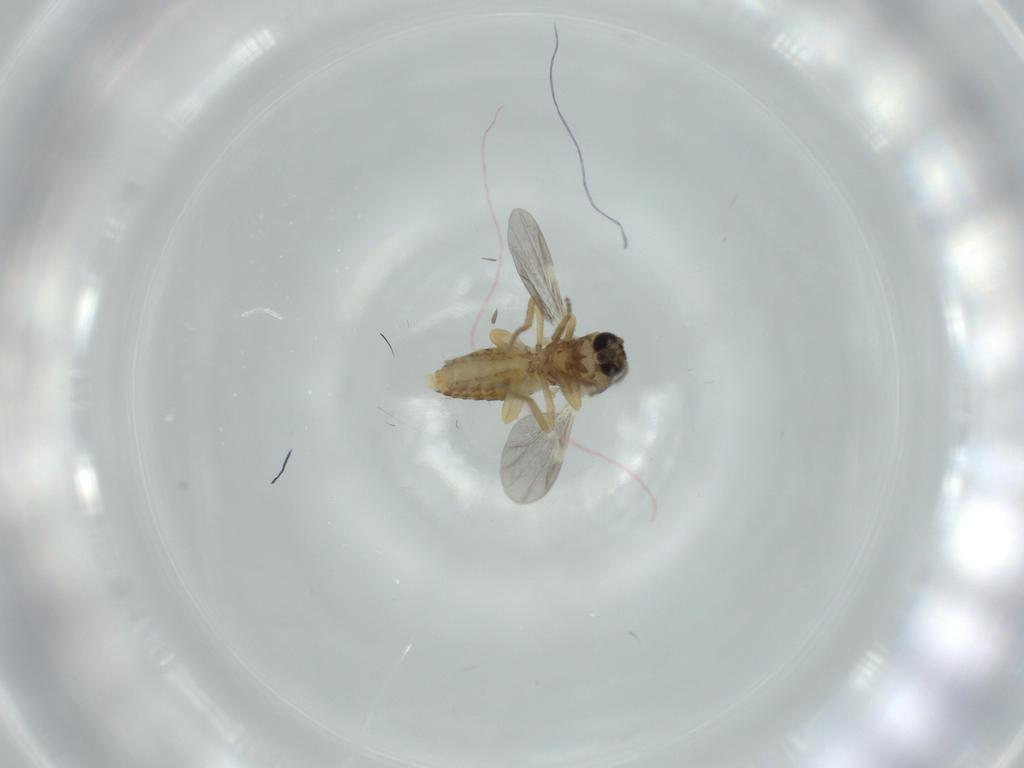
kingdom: Animalia
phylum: Arthropoda
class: Insecta
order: Diptera
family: Ceratopogonidae
